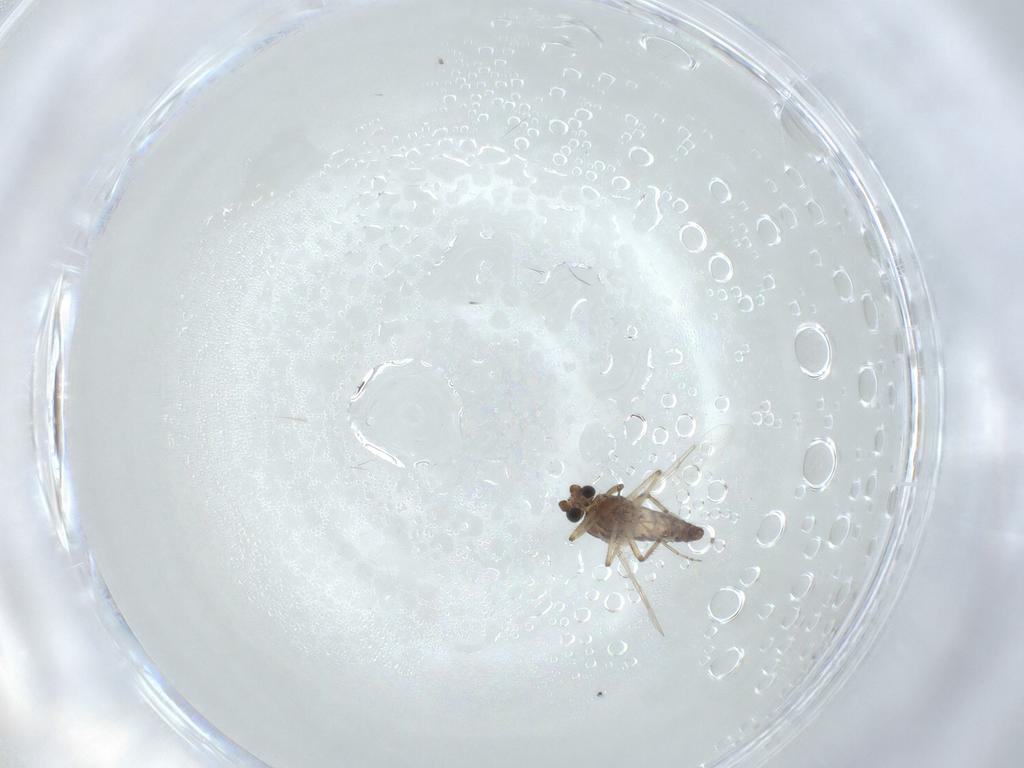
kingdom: Animalia
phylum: Arthropoda
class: Insecta
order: Diptera
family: Ceratopogonidae
